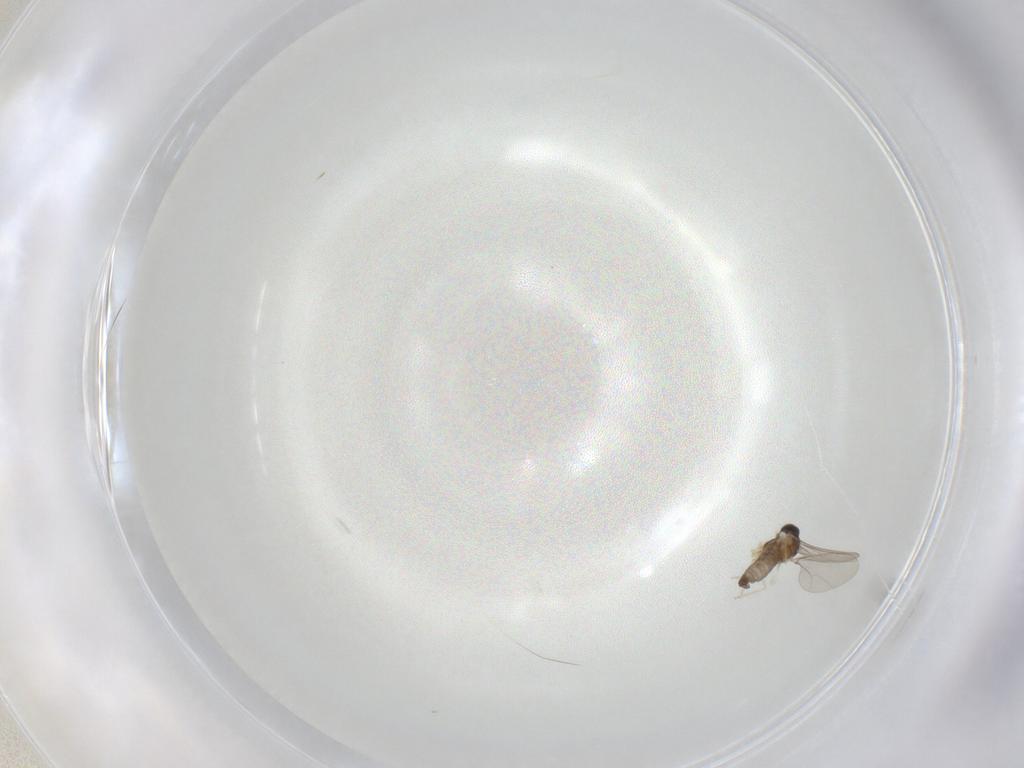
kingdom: Animalia
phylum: Arthropoda
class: Insecta
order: Diptera
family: Cecidomyiidae
